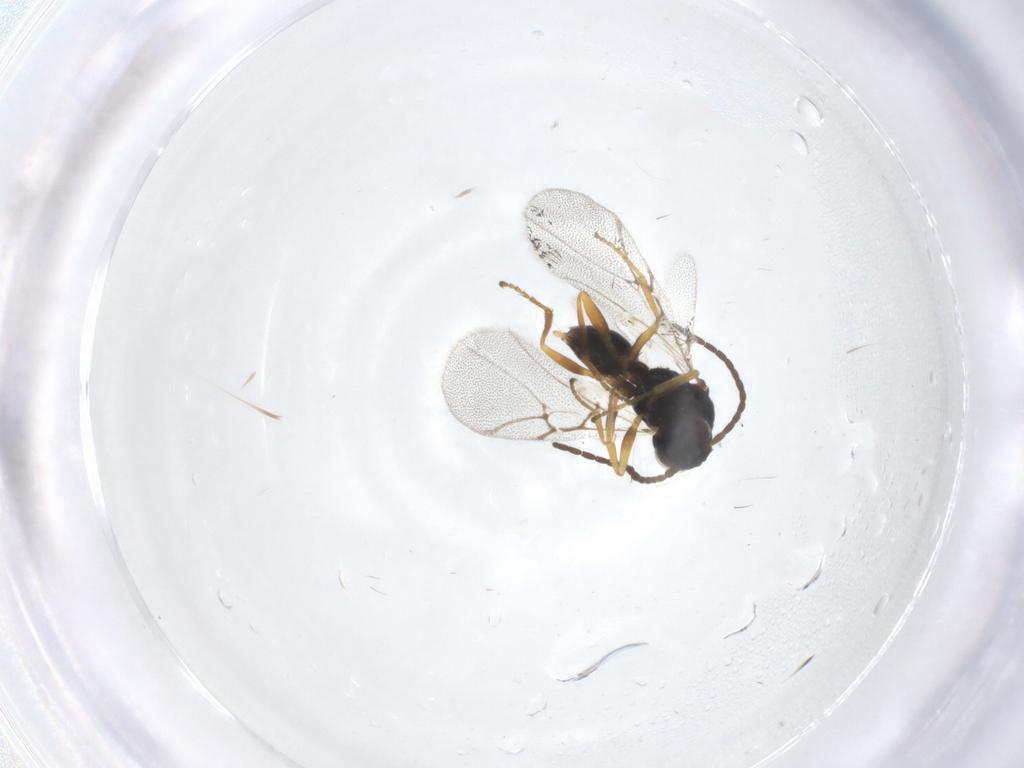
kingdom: Animalia
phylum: Arthropoda
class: Insecta
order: Hymenoptera
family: Cynipidae
